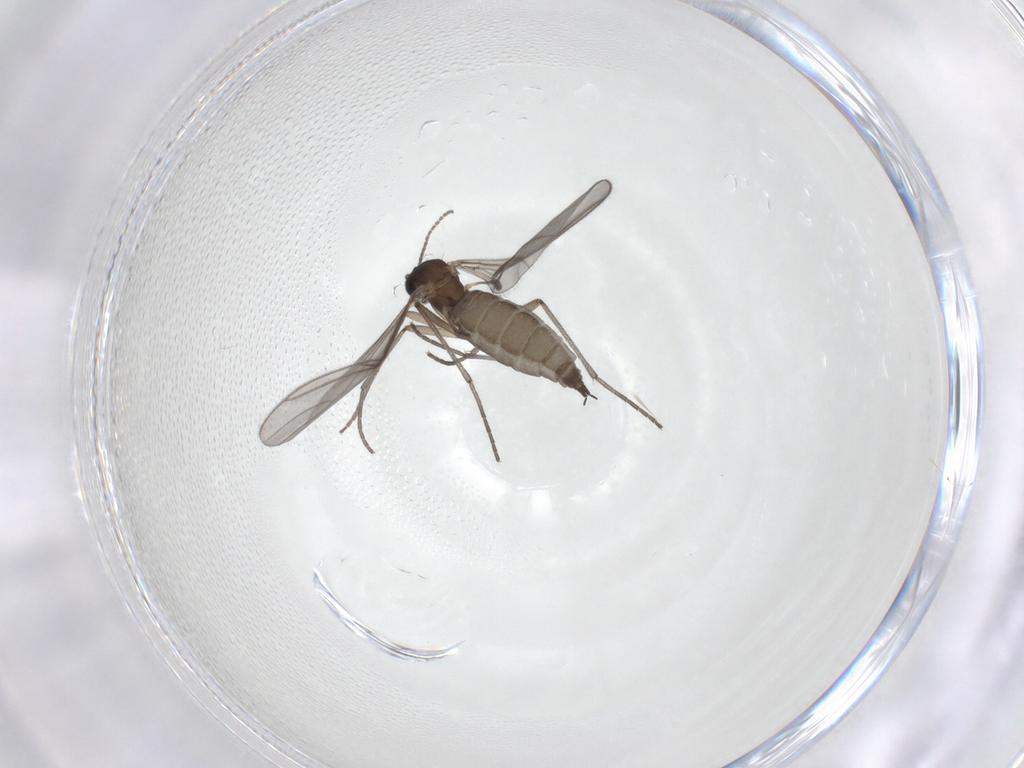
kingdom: Animalia
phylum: Arthropoda
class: Insecta
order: Diptera
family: Sciaridae
